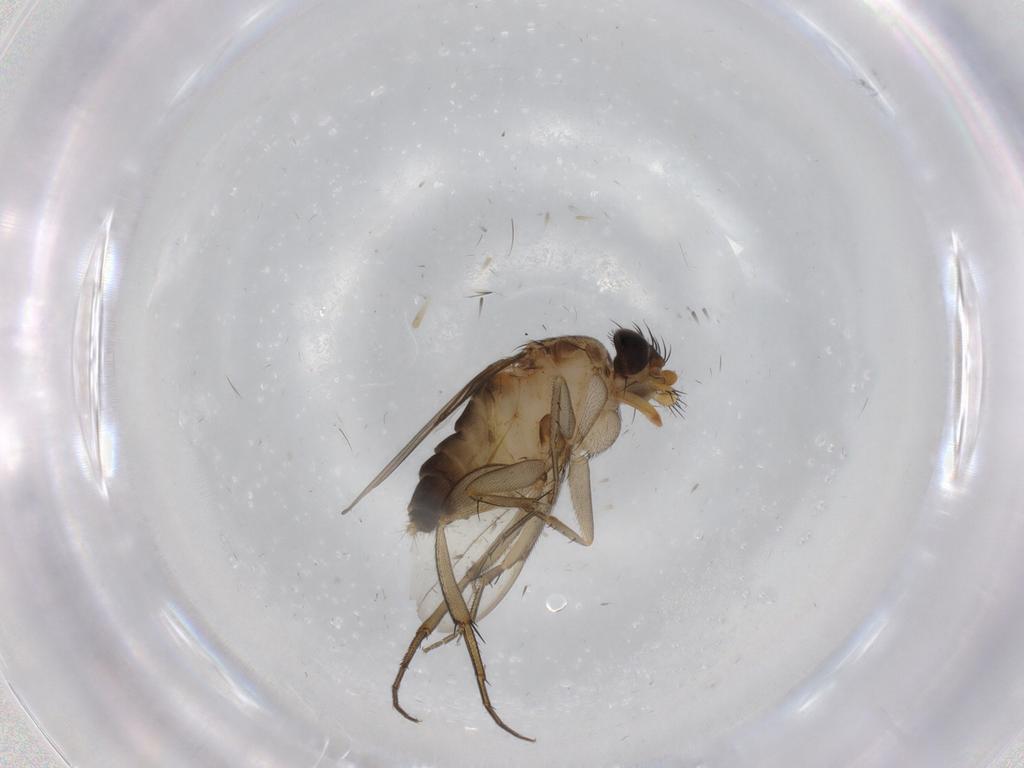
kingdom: Animalia
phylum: Arthropoda
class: Insecta
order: Diptera
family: Phoridae
